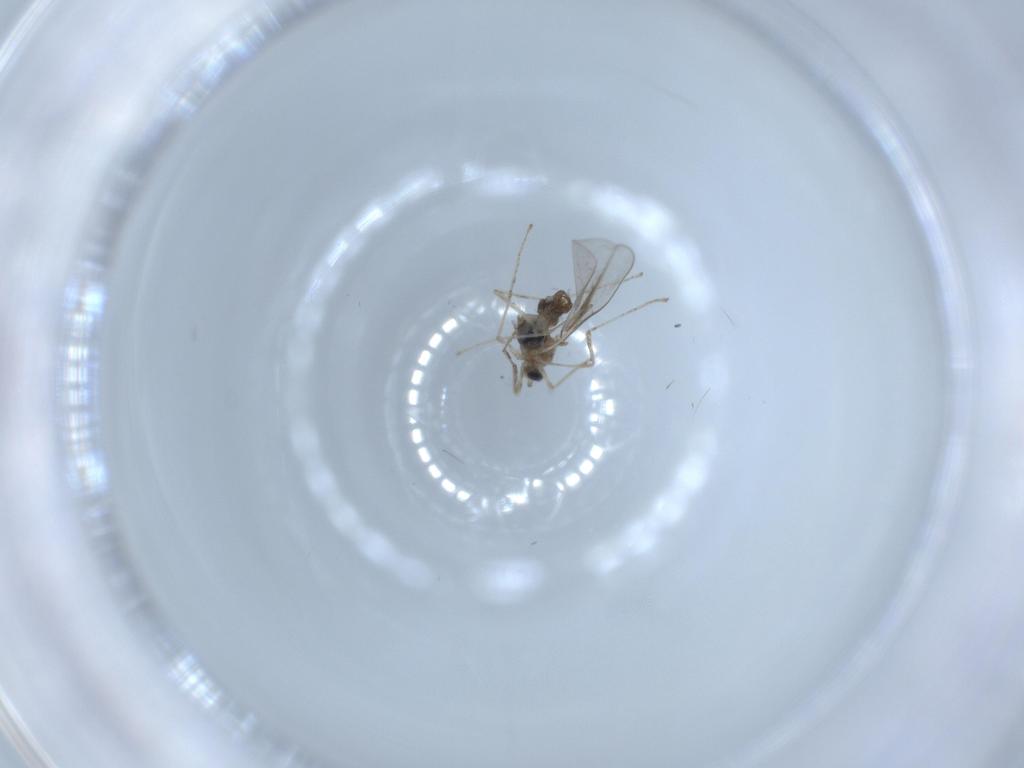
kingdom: Animalia
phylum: Arthropoda
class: Insecta
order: Diptera
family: Cecidomyiidae
